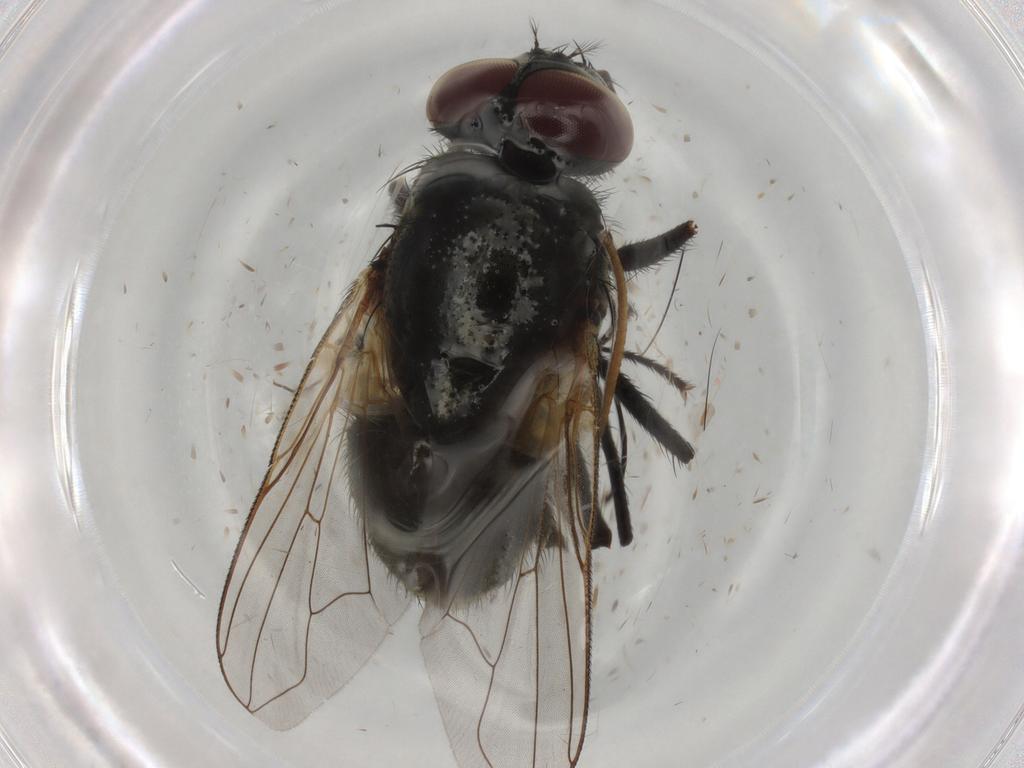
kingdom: Animalia
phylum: Arthropoda
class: Insecta
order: Diptera
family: Muscidae
